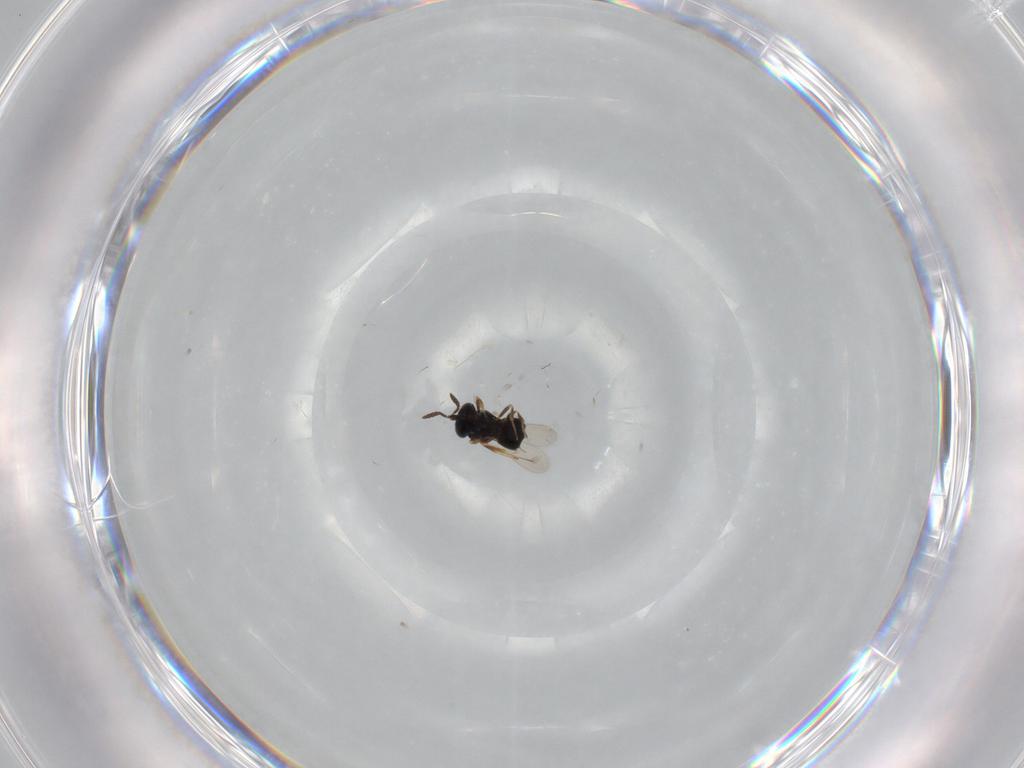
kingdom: Animalia
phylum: Arthropoda
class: Insecta
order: Hymenoptera
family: Scelionidae
